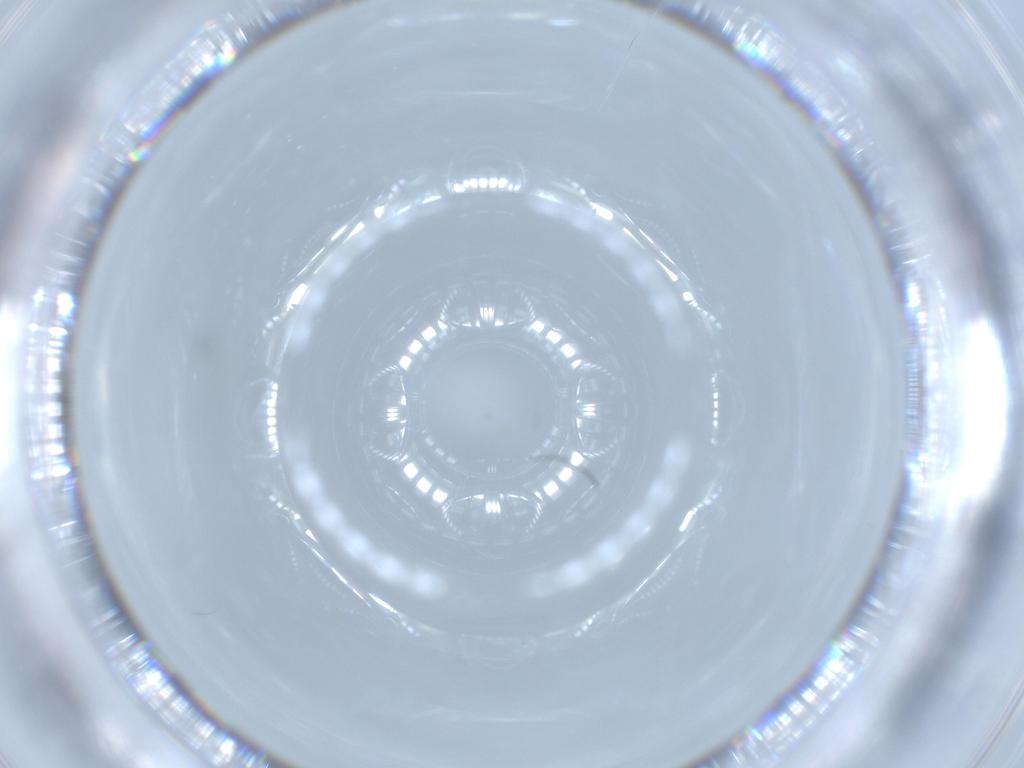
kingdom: Animalia
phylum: Arthropoda
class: Insecta
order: Diptera
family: Cecidomyiidae
